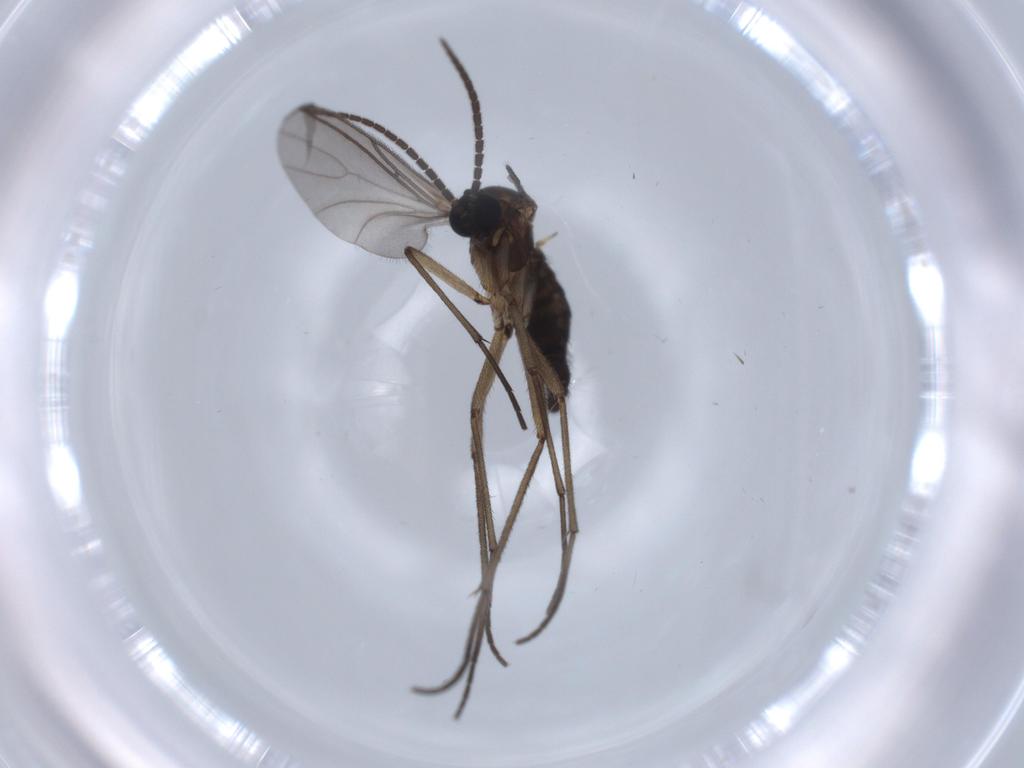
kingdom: Animalia
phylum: Arthropoda
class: Insecta
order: Diptera
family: Sciaridae
